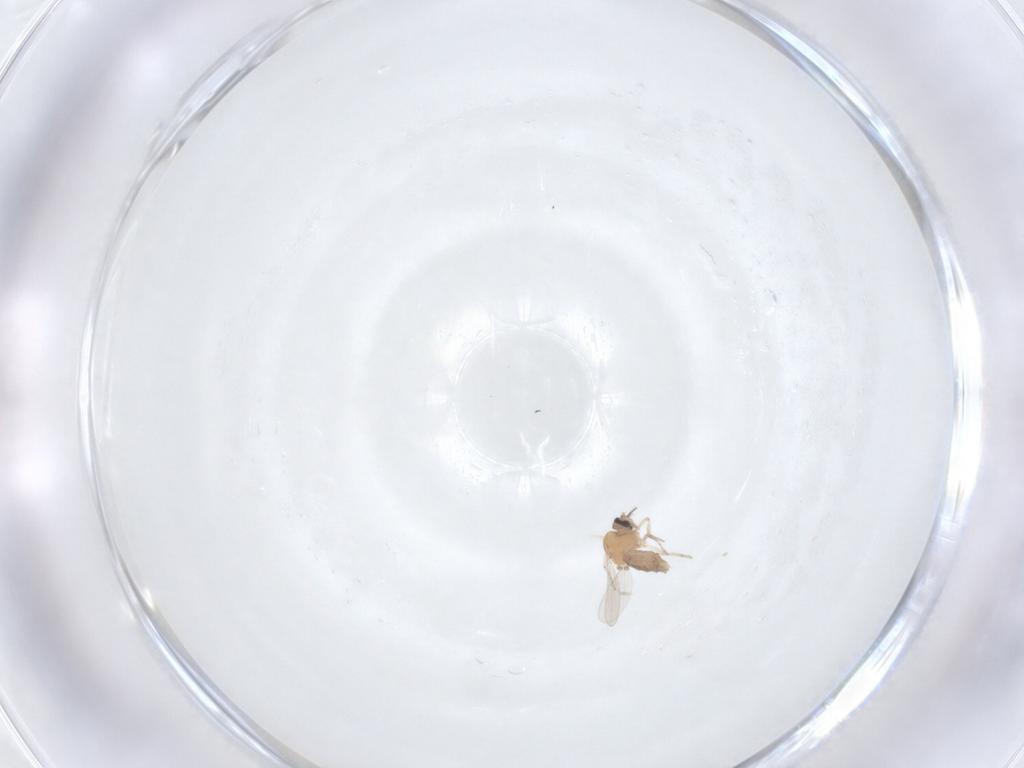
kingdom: Animalia
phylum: Arthropoda
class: Insecta
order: Diptera
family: Ceratopogonidae
